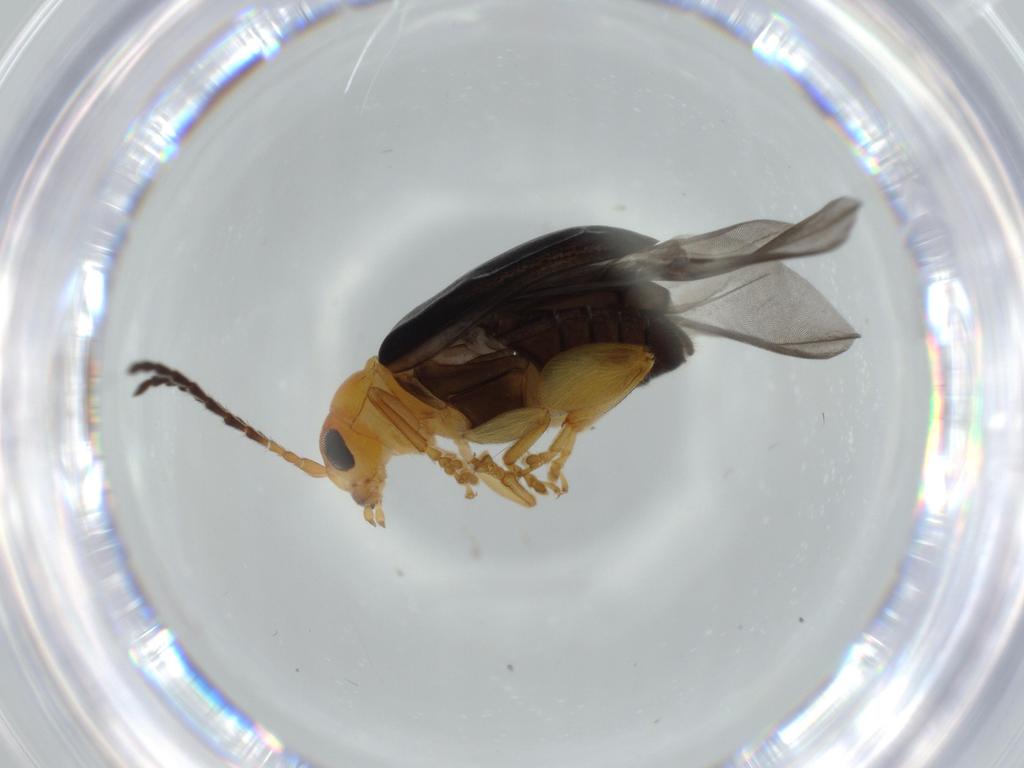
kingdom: Animalia
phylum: Arthropoda
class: Insecta
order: Coleoptera
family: Chrysomelidae
